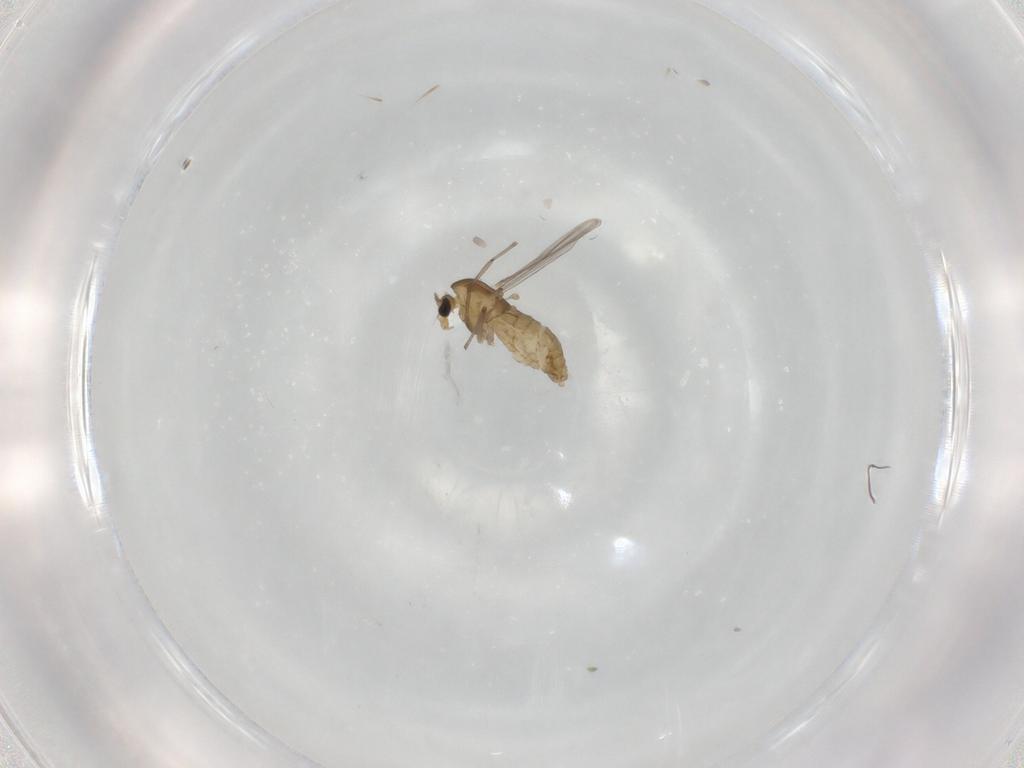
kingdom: Animalia
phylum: Arthropoda
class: Insecta
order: Diptera
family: Chironomidae
